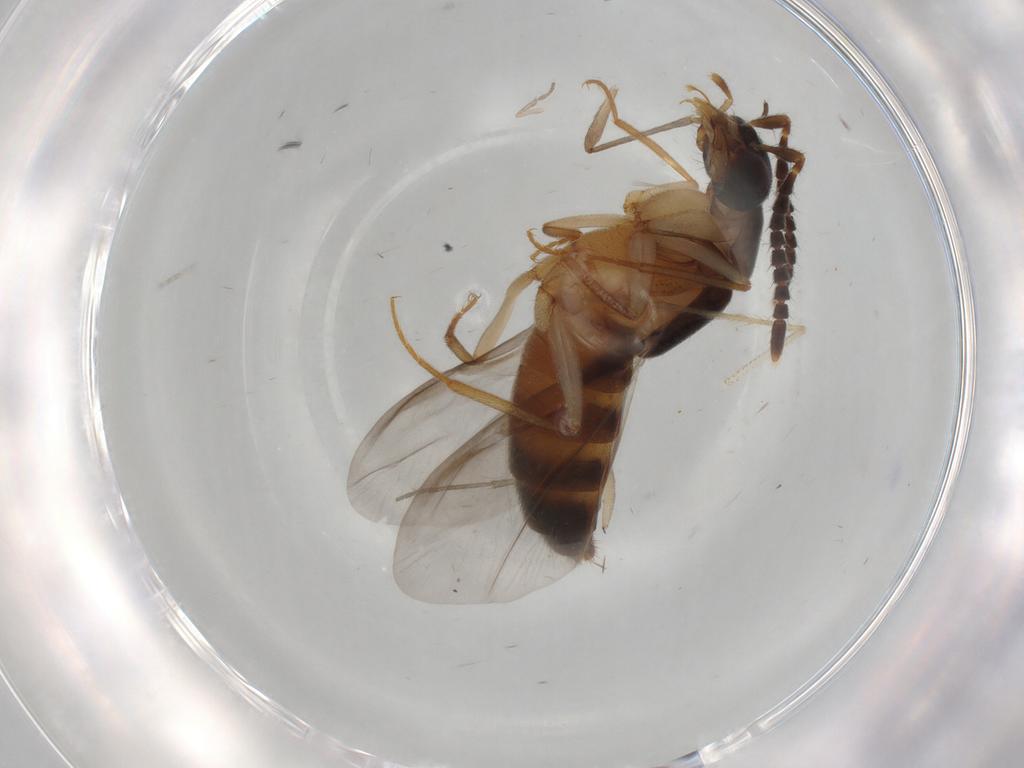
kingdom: Animalia
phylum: Arthropoda
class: Insecta
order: Coleoptera
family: Staphylinidae
